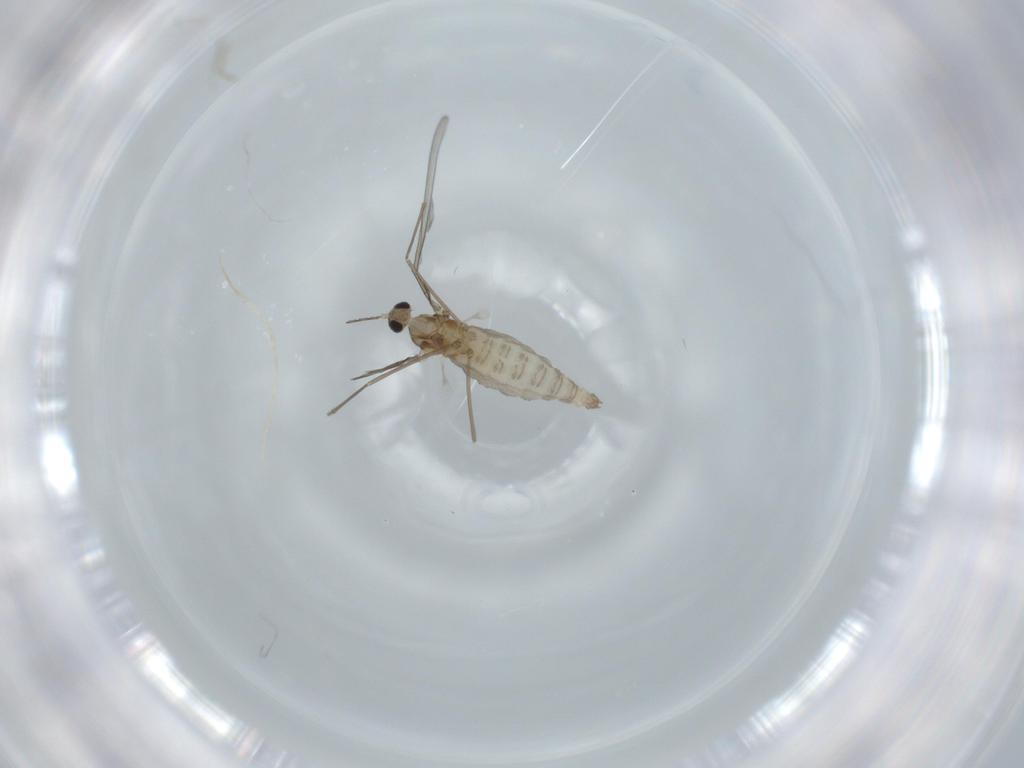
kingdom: Animalia
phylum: Arthropoda
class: Insecta
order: Diptera
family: Cecidomyiidae
